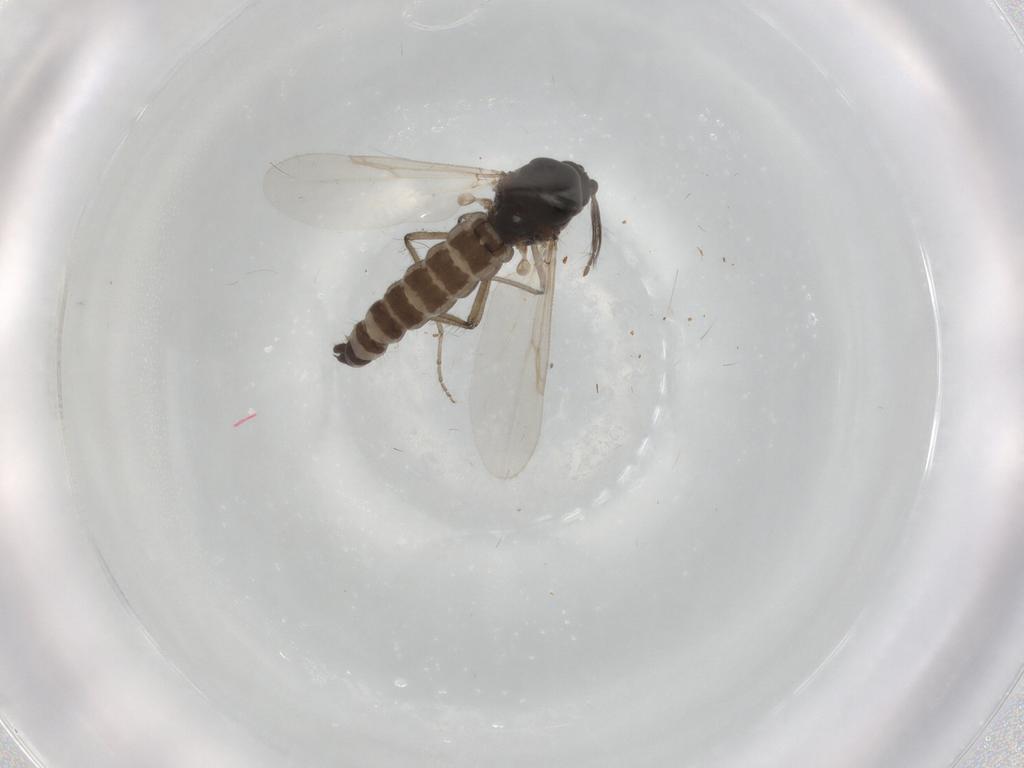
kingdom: Animalia
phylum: Arthropoda
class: Insecta
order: Diptera
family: Ceratopogonidae
